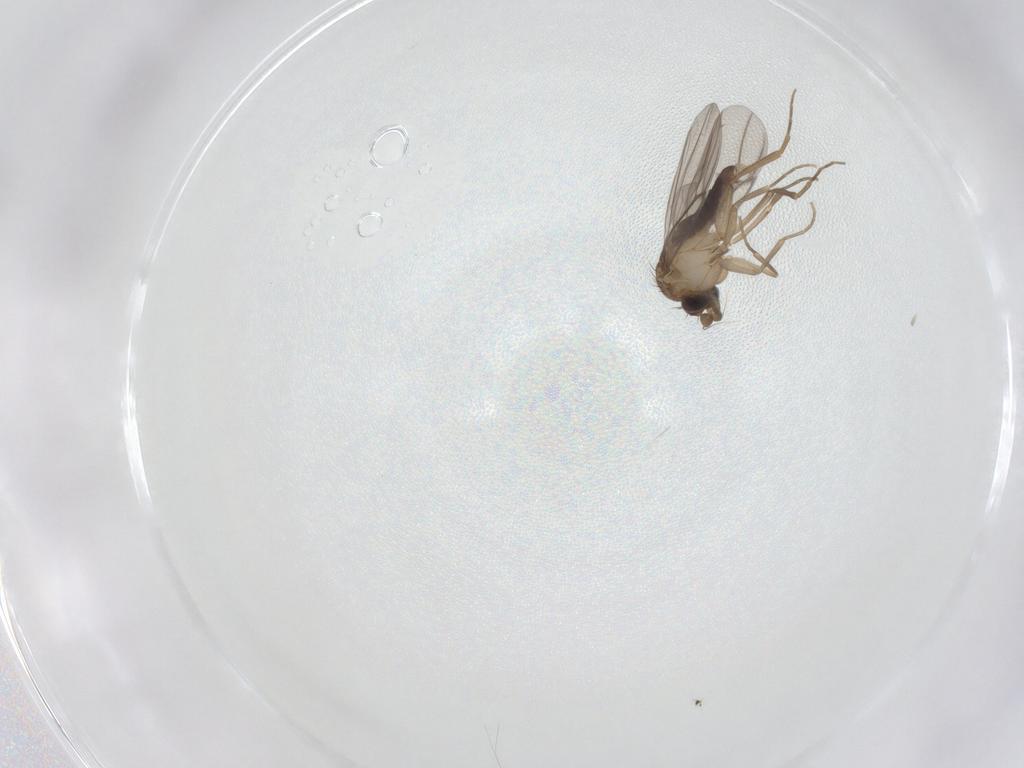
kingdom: Animalia
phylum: Arthropoda
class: Insecta
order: Diptera
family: Phoridae
